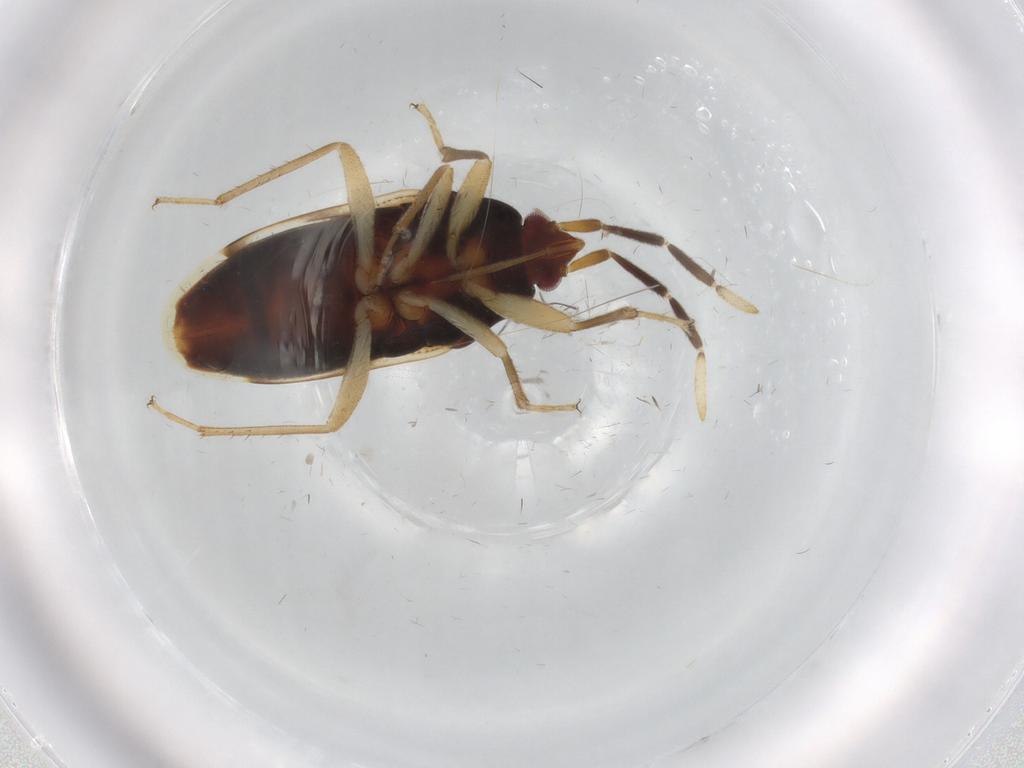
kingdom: Animalia
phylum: Arthropoda
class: Insecta
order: Hemiptera
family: Rhyparochromidae
